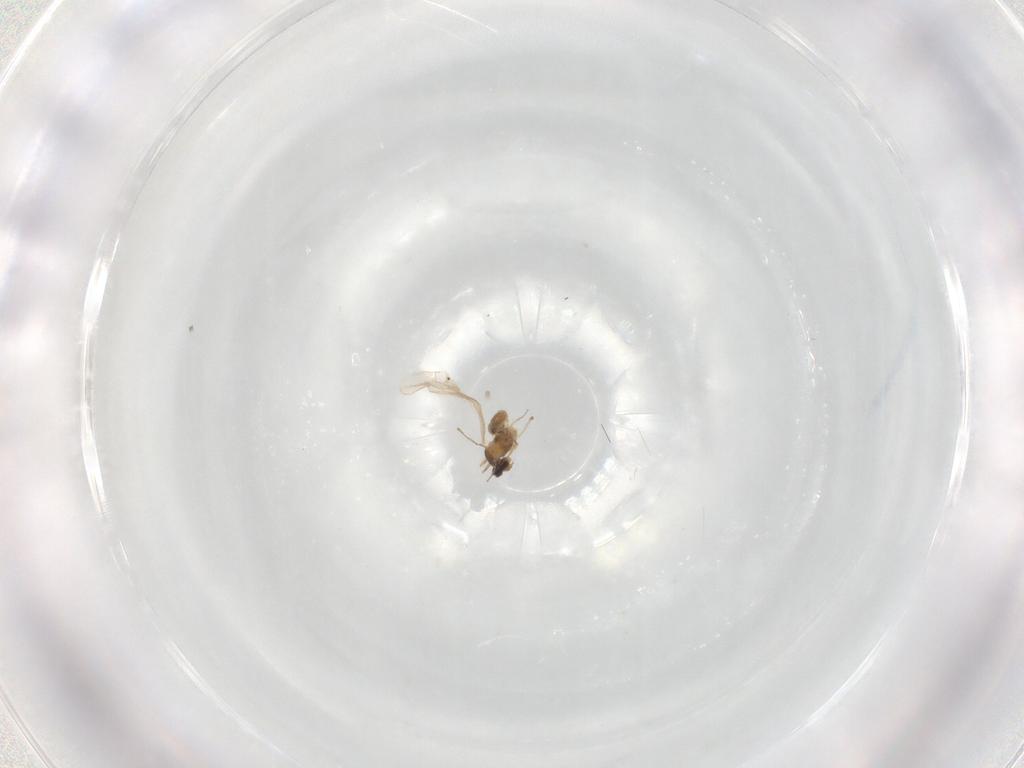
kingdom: Animalia
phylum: Arthropoda
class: Insecta
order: Diptera
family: Cecidomyiidae
